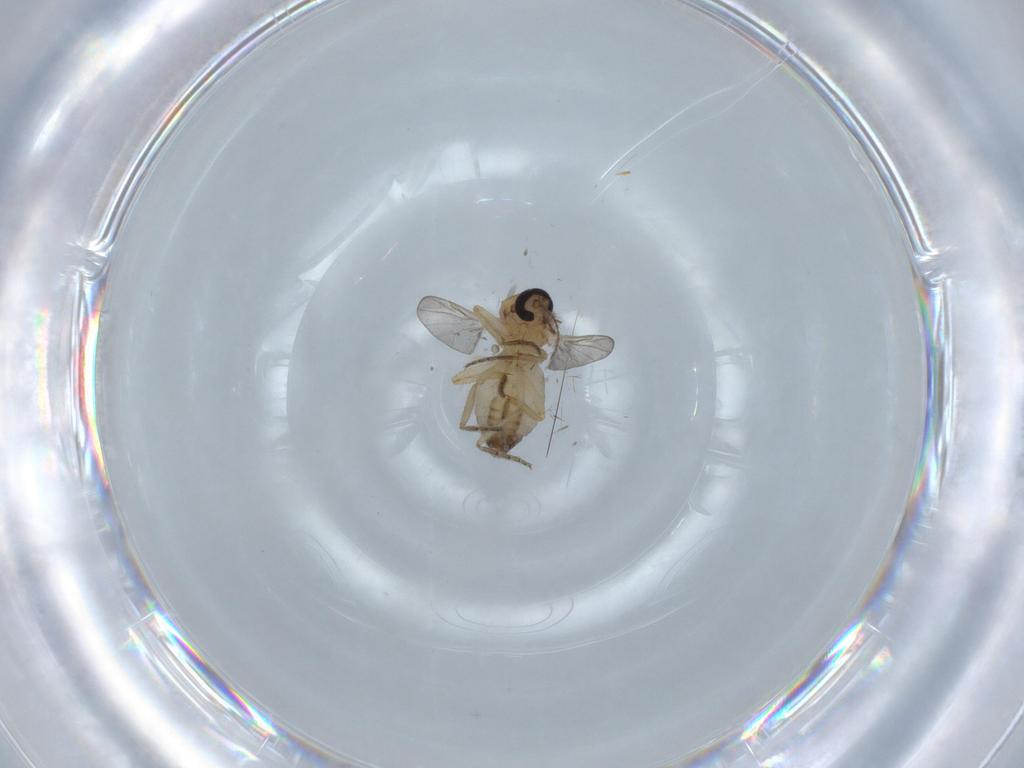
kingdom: Animalia
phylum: Arthropoda
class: Insecta
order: Diptera
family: Ceratopogonidae
